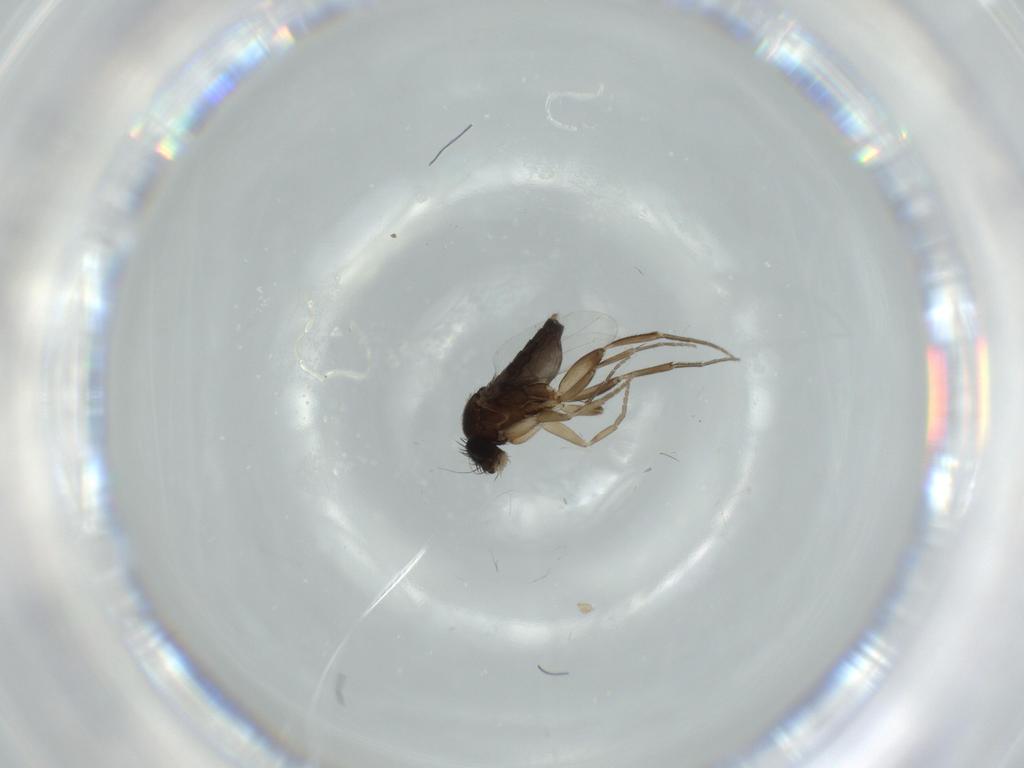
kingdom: Animalia
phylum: Arthropoda
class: Insecta
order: Diptera
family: Phoridae
